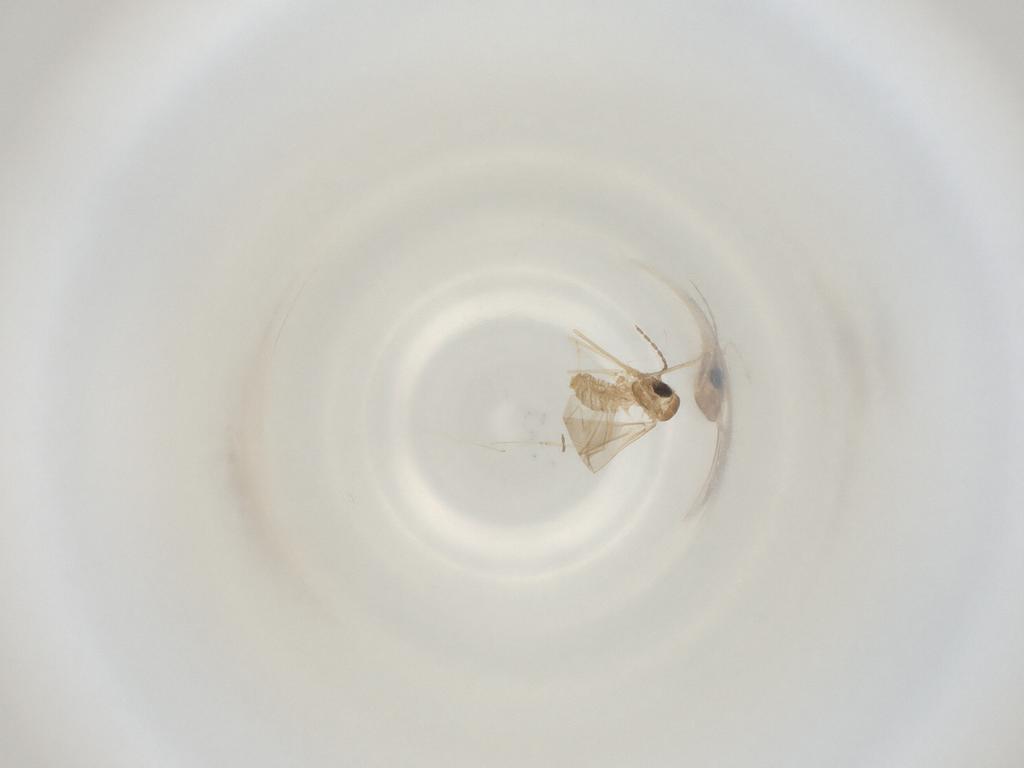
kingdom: Animalia
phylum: Arthropoda
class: Insecta
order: Diptera
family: Cecidomyiidae
